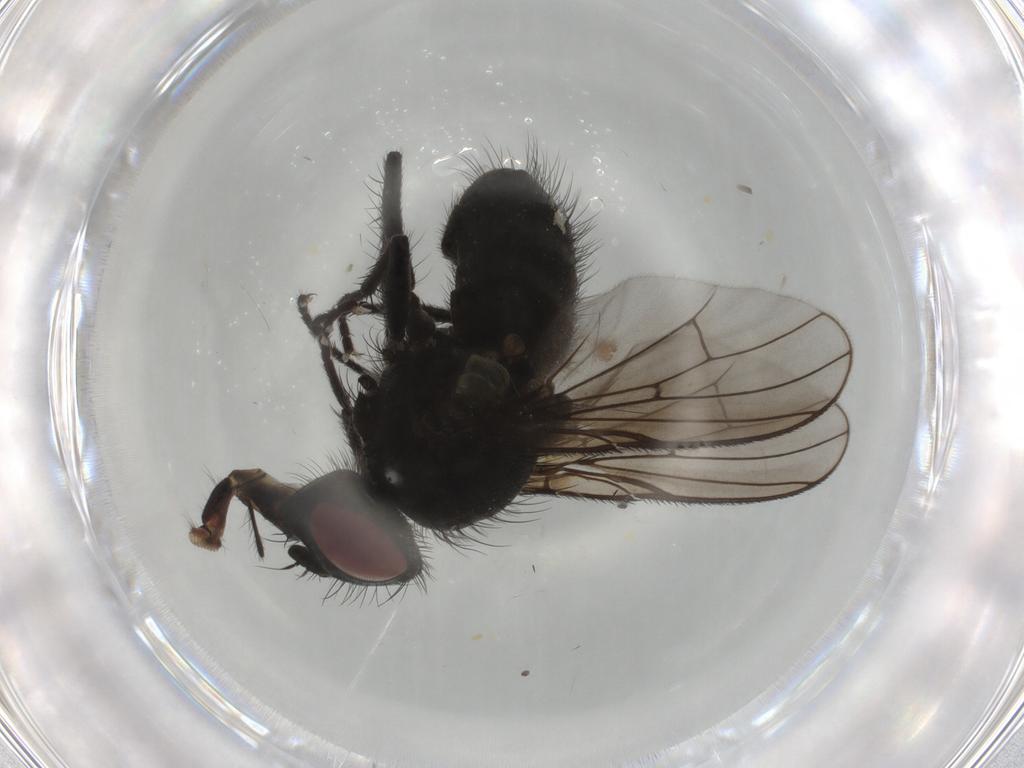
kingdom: Animalia
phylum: Arthropoda
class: Insecta
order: Diptera
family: Muscidae
